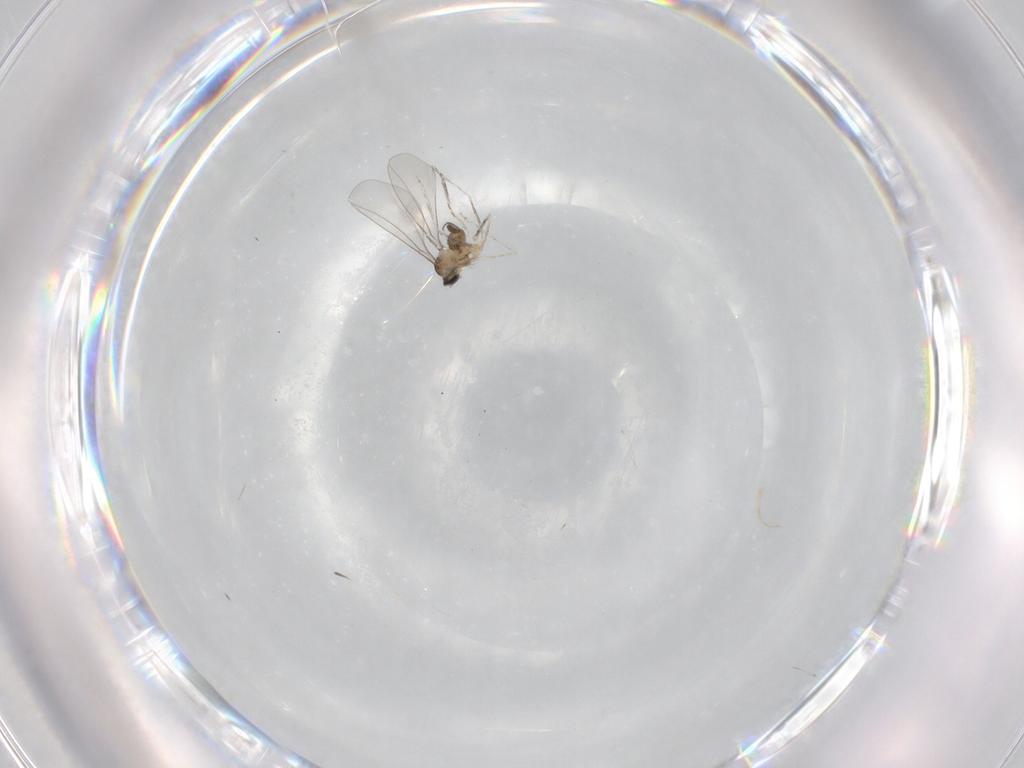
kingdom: Animalia
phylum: Arthropoda
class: Insecta
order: Diptera
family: Cecidomyiidae
